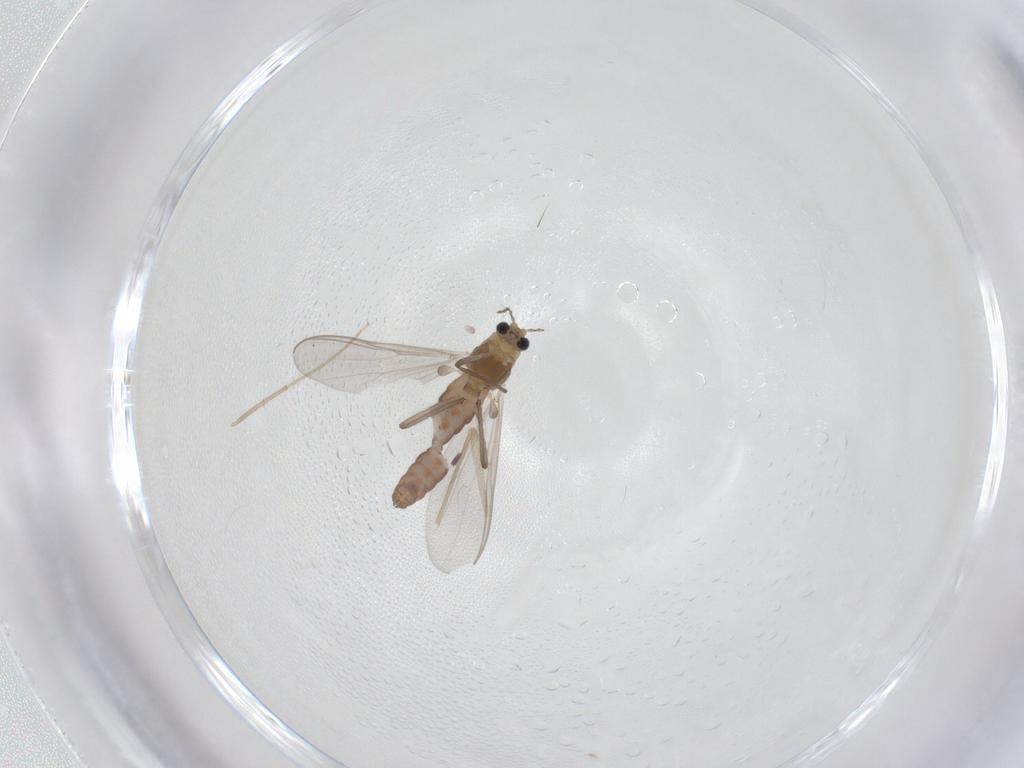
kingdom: Animalia
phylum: Arthropoda
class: Insecta
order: Diptera
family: Chironomidae
